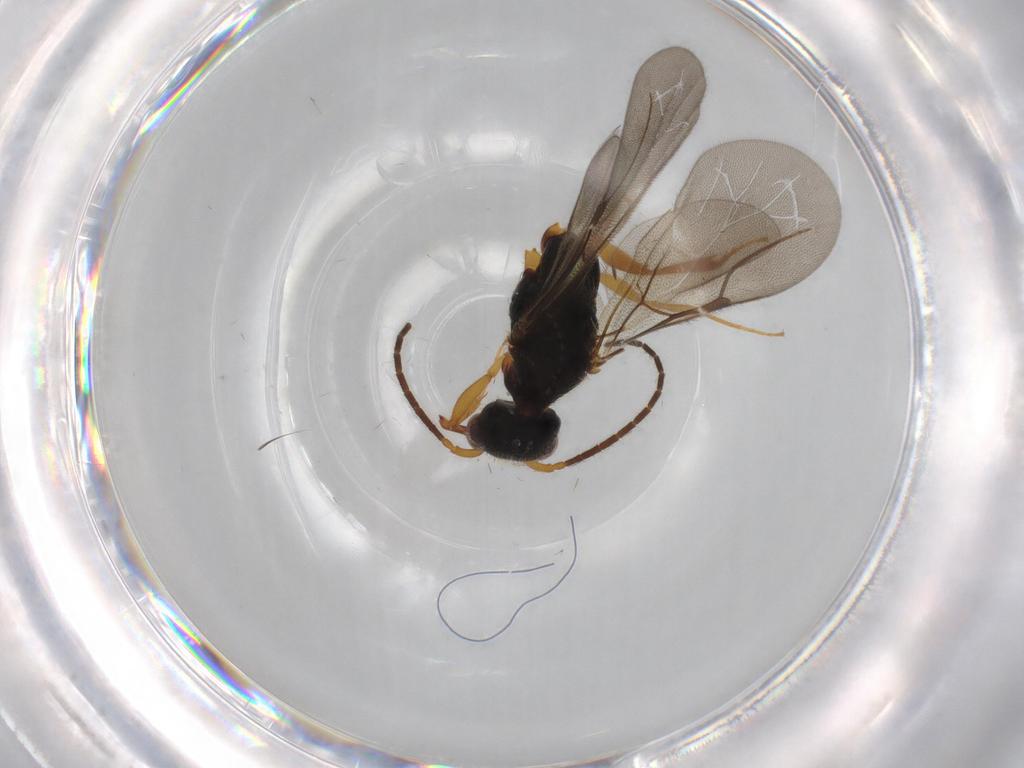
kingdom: Animalia
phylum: Arthropoda
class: Insecta
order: Hymenoptera
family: Bethylidae
